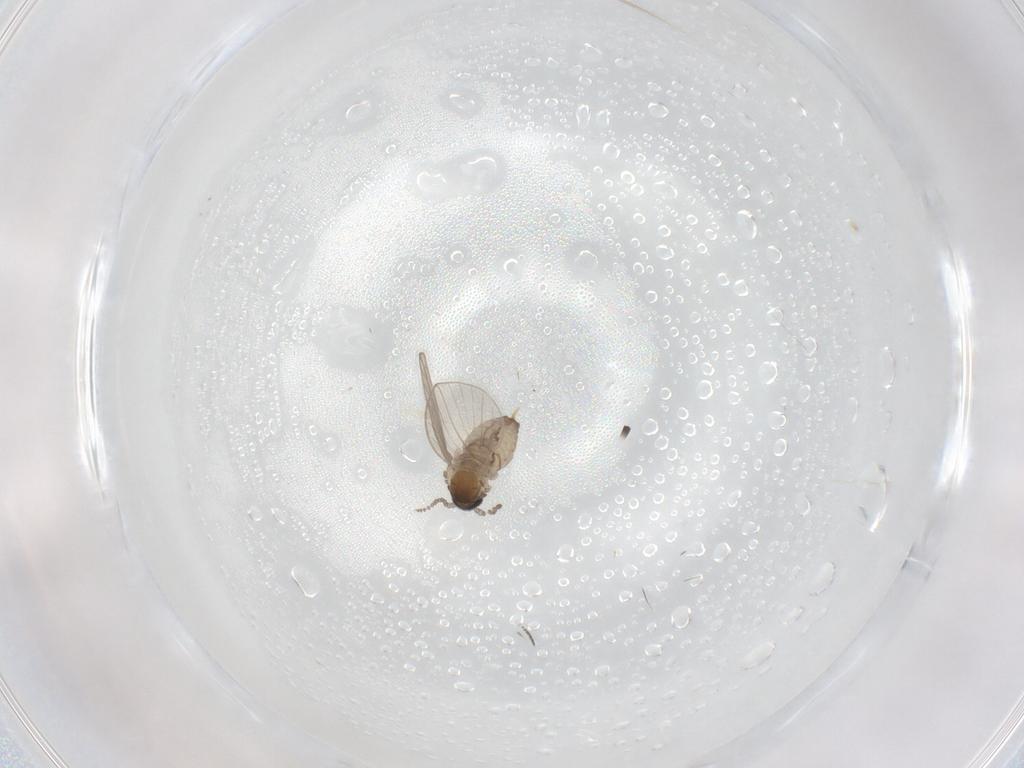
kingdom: Animalia
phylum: Arthropoda
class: Insecta
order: Diptera
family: Psychodidae
